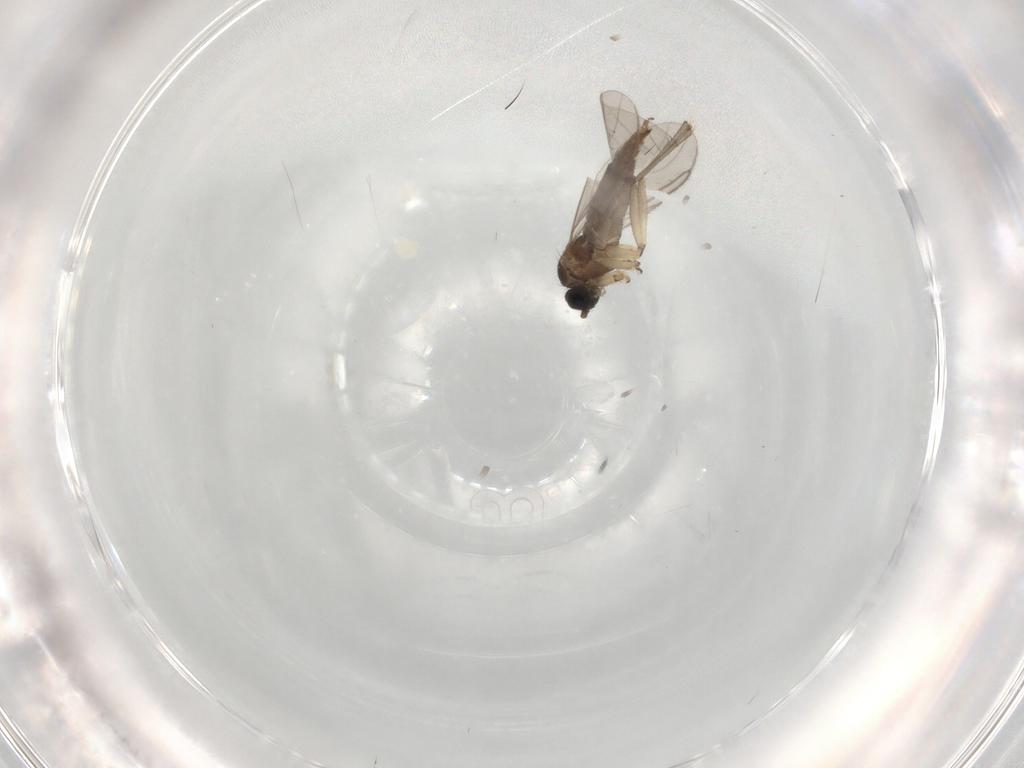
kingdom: Animalia
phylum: Arthropoda
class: Insecta
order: Diptera
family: Sciaridae
